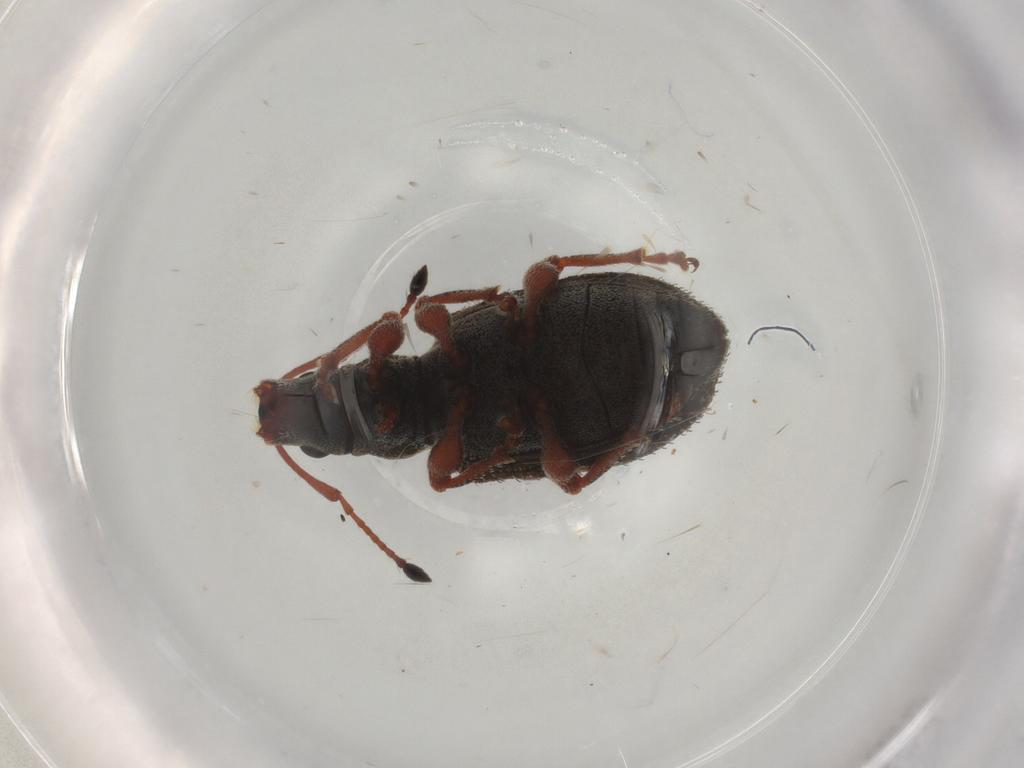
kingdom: Animalia
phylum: Arthropoda
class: Insecta
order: Coleoptera
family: Curculionidae
